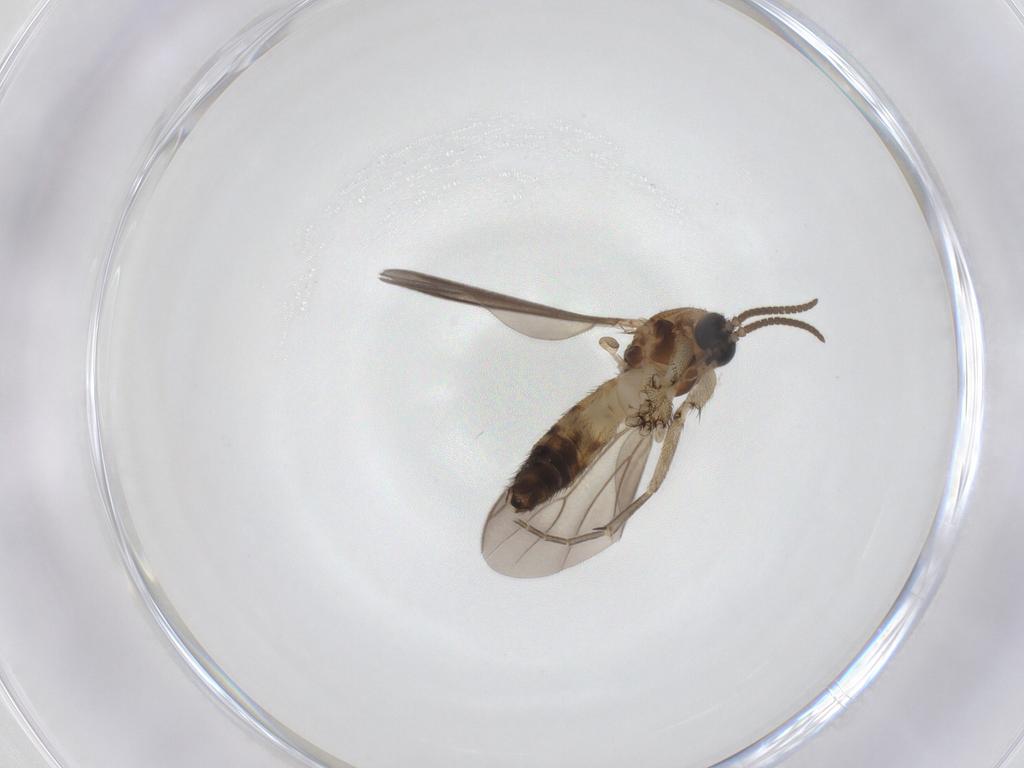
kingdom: Animalia
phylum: Arthropoda
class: Insecta
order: Diptera
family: Mycetophilidae
